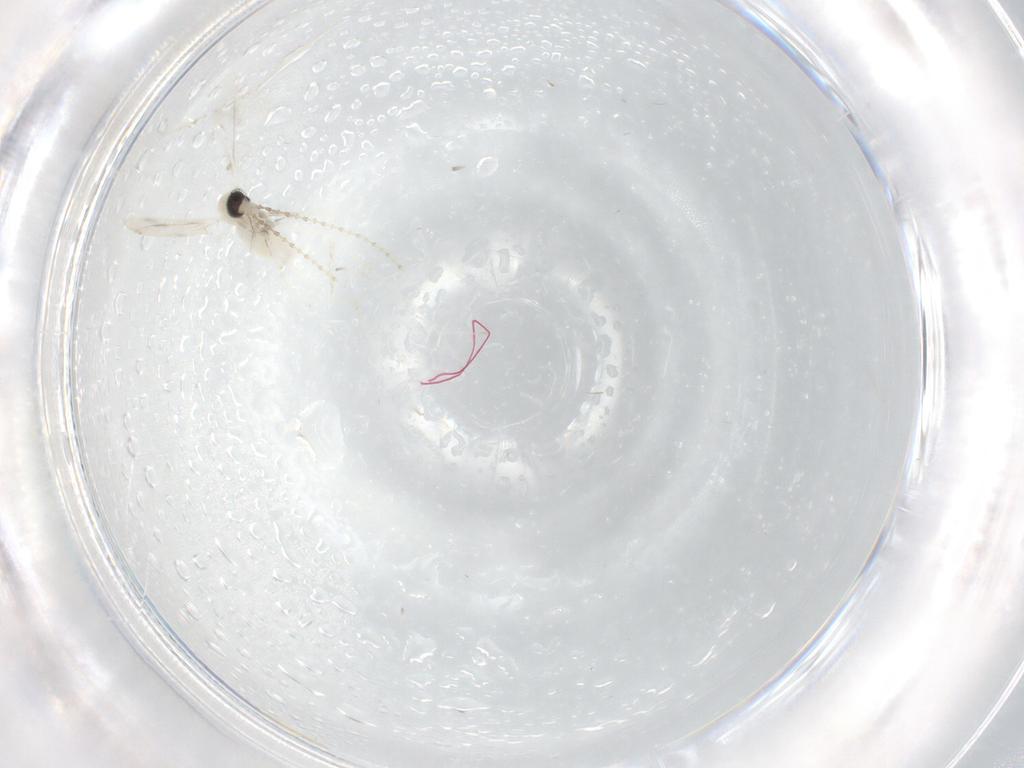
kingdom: Animalia
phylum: Arthropoda
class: Insecta
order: Diptera
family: Cecidomyiidae
